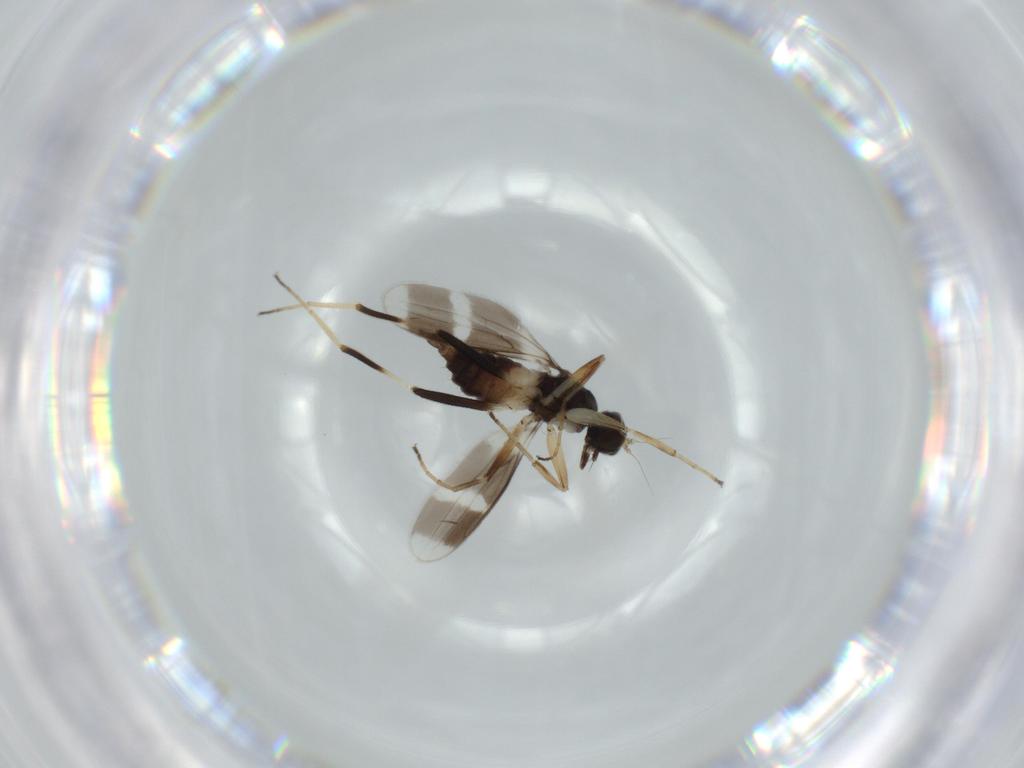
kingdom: Animalia
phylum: Arthropoda
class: Insecta
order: Diptera
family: Hybotidae
